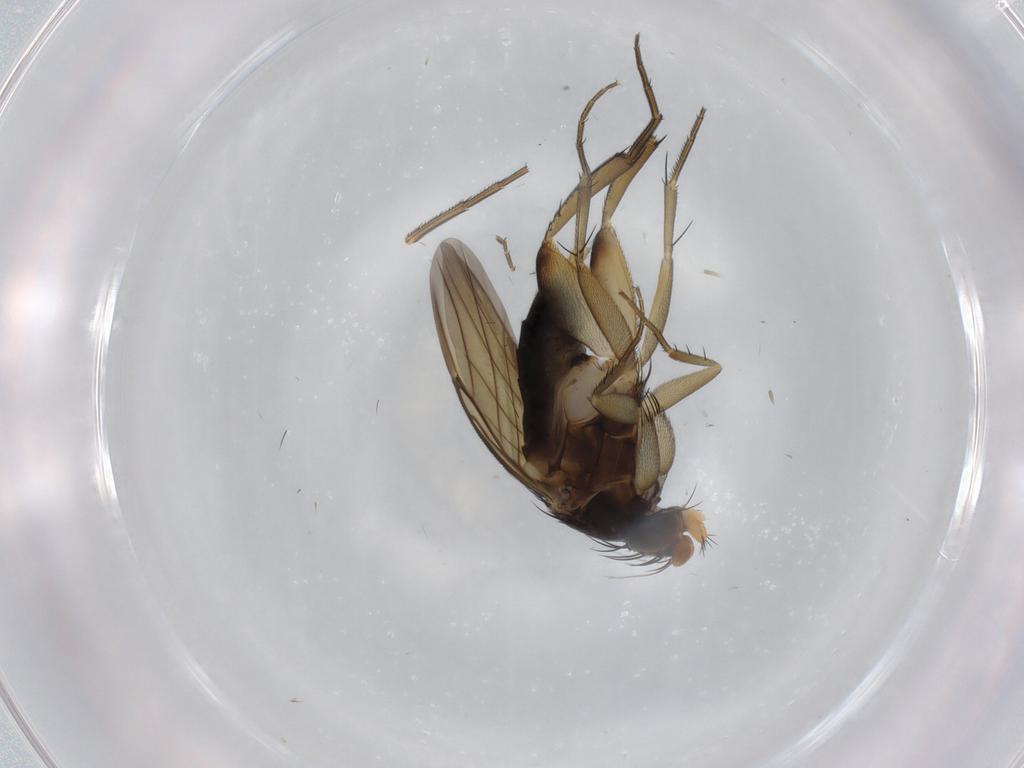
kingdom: Animalia
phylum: Arthropoda
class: Insecta
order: Diptera
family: Phoridae
